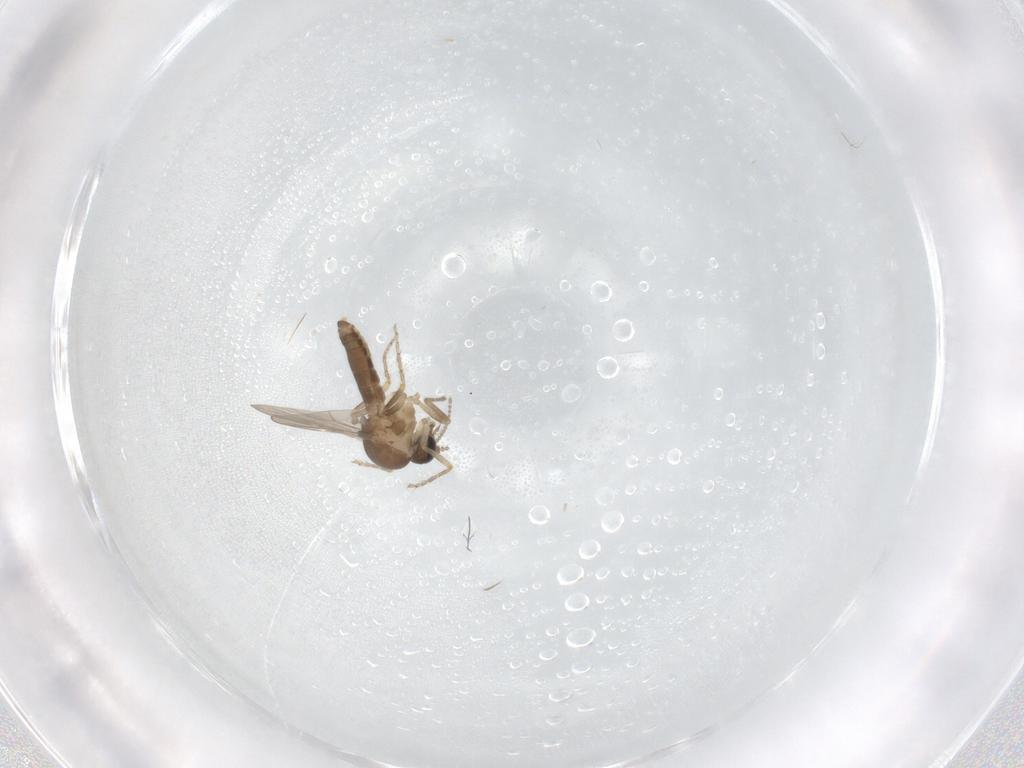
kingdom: Animalia
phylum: Arthropoda
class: Insecta
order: Diptera
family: Ceratopogonidae
